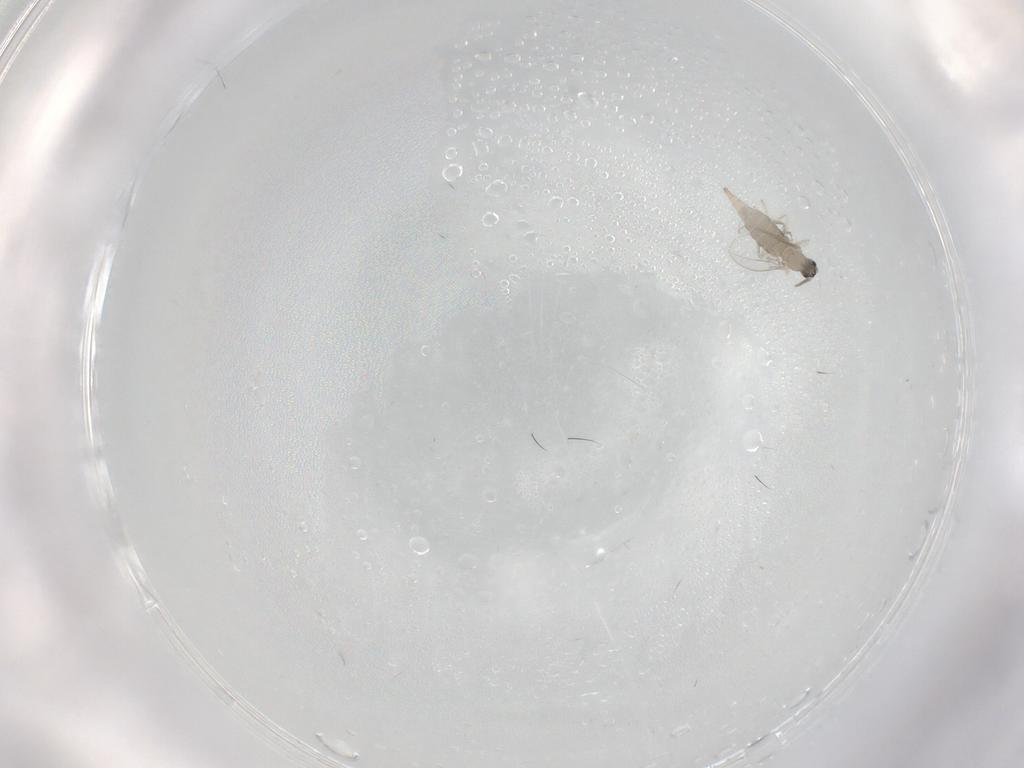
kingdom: Animalia
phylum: Arthropoda
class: Insecta
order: Diptera
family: Cecidomyiidae
